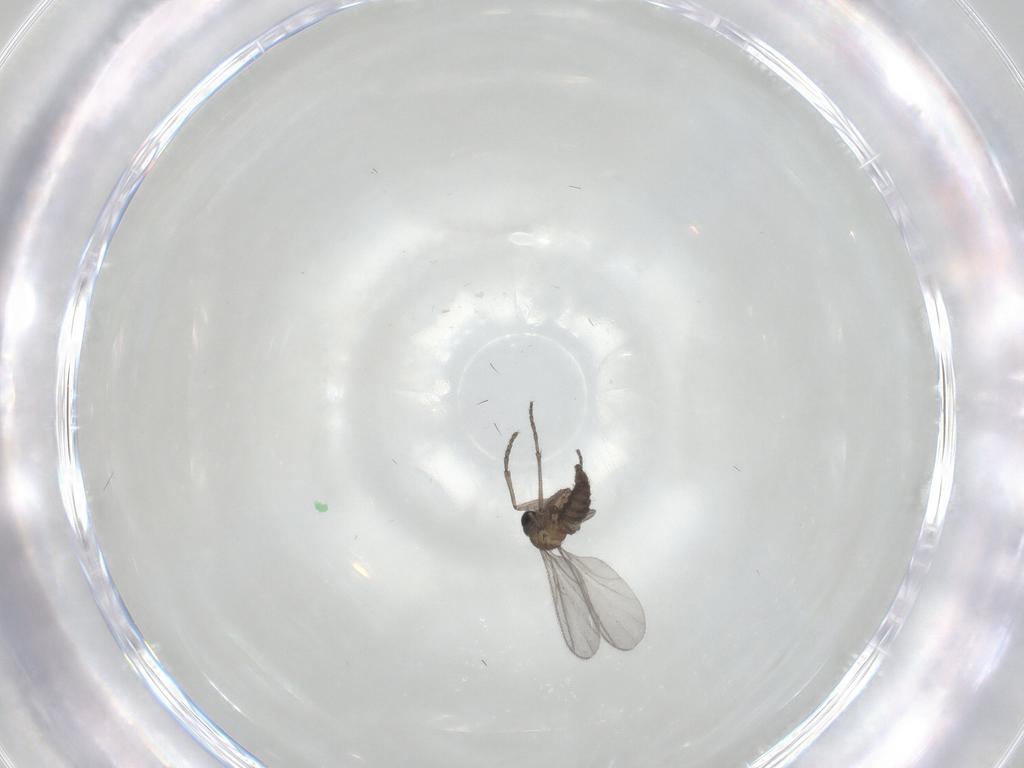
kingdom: Animalia
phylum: Arthropoda
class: Insecta
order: Diptera
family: Sciaridae
